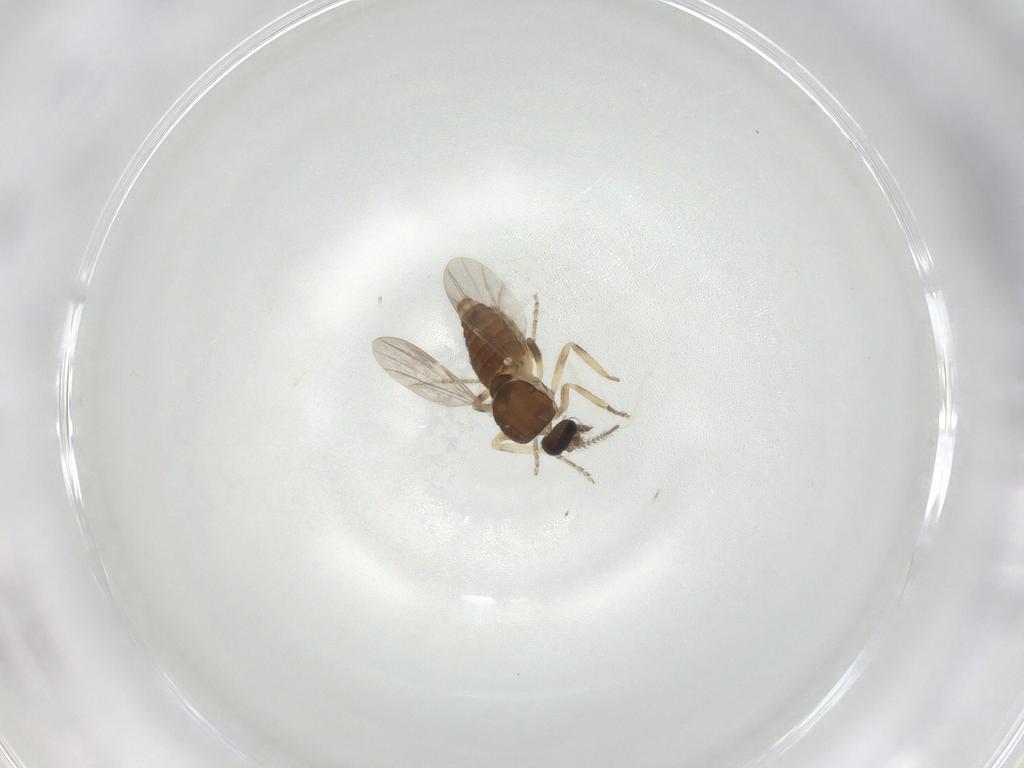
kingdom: Animalia
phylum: Arthropoda
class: Insecta
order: Diptera
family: Ceratopogonidae
